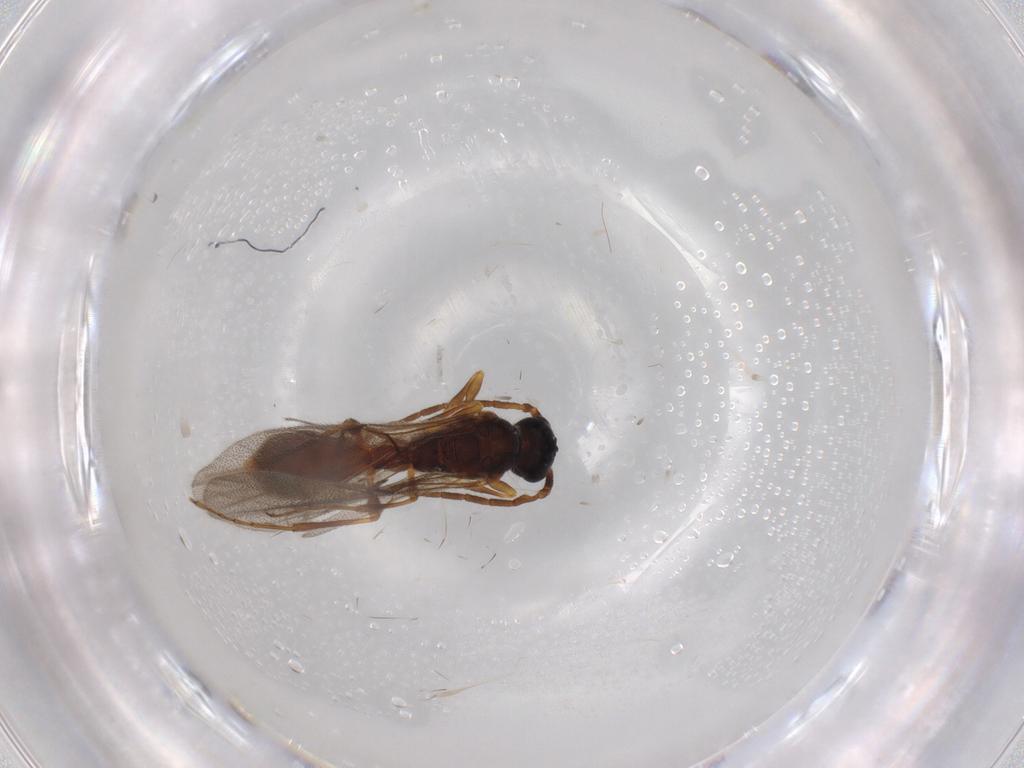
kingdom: Animalia
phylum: Arthropoda
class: Insecta
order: Hymenoptera
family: Diapriidae
